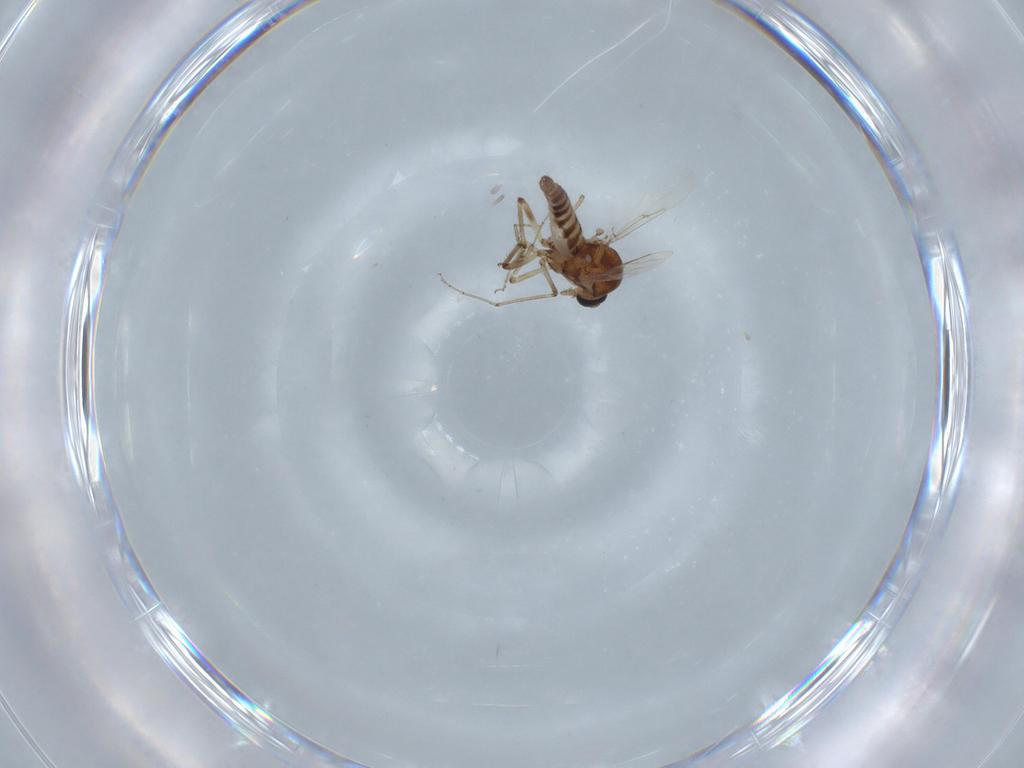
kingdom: Animalia
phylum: Arthropoda
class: Insecta
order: Diptera
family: Ceratopogonidae
